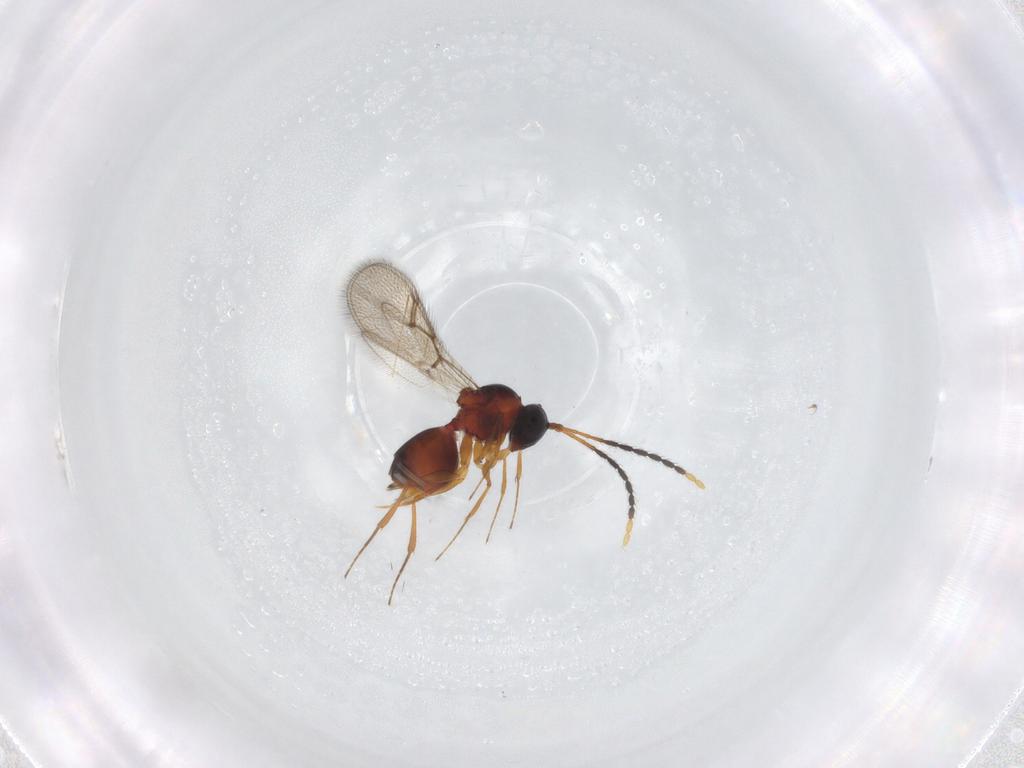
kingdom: Animalia
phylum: Arthropoda
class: Insecta
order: Hymenoptera
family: Figitidae
